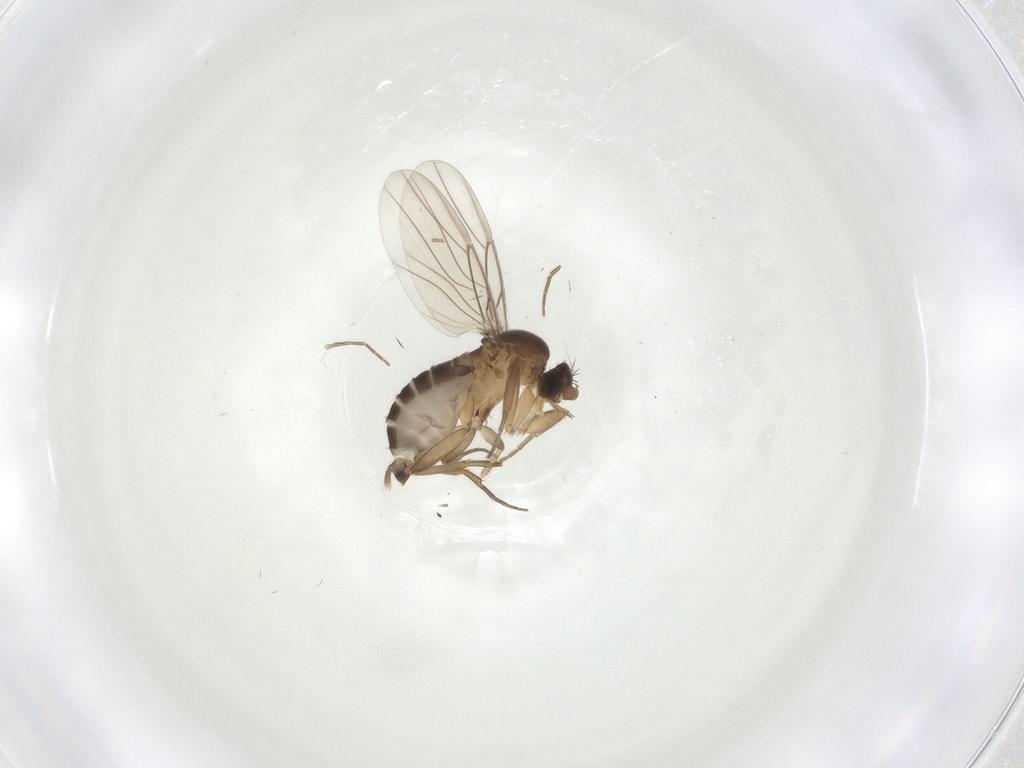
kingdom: Animalia
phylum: Arthropoda
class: Insecta
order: Diptera
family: Phoridae
